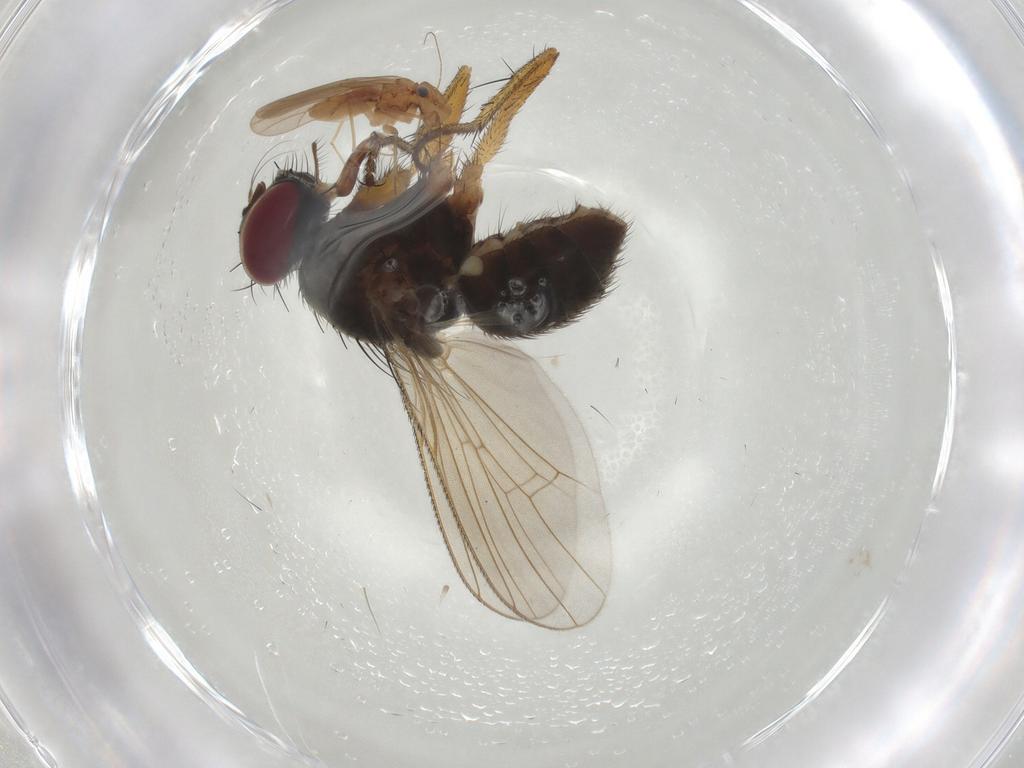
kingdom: Animalia
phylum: Arthropoda
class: Insecta
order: Diptera
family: Muscidae
